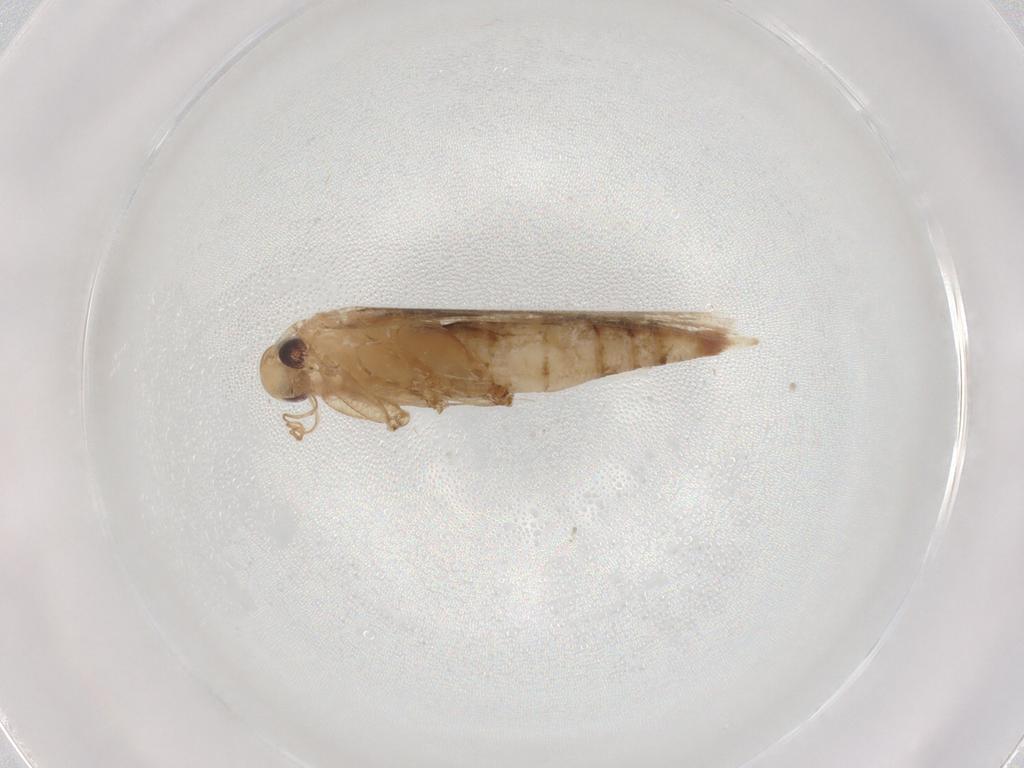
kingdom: Animalia
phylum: Arthropoda
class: Insecta
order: Lepidoptera
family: Cosmopterigidae
